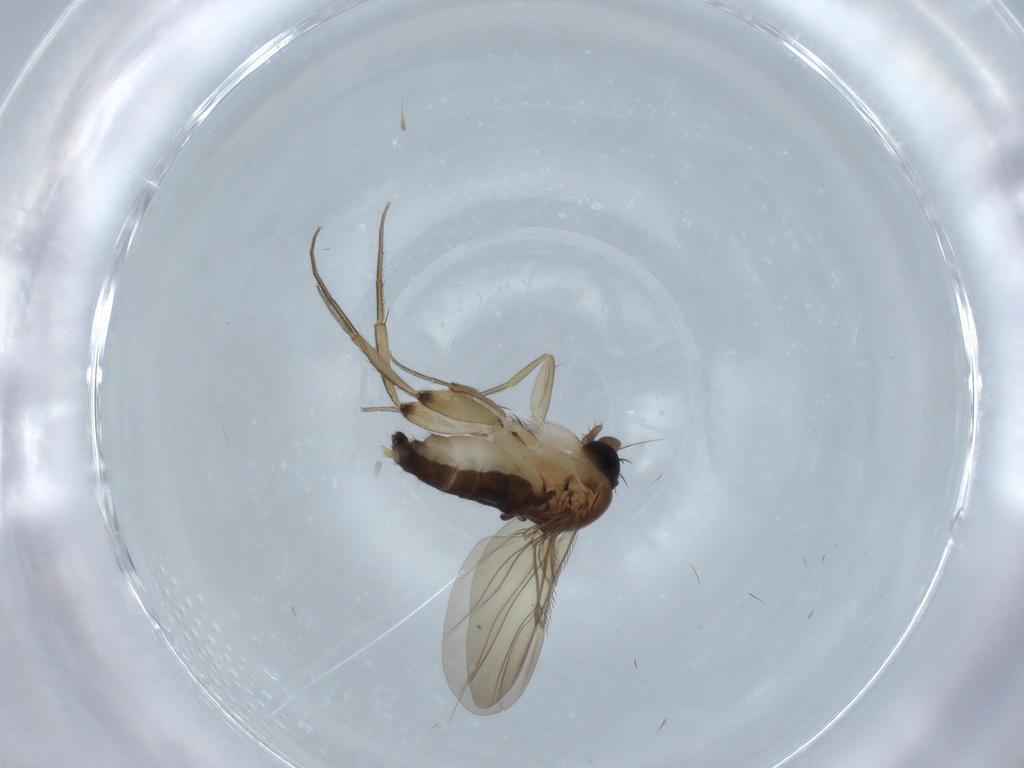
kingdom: Animalia
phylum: Arthropoda
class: Insecta
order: Diptera
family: Phoridae
